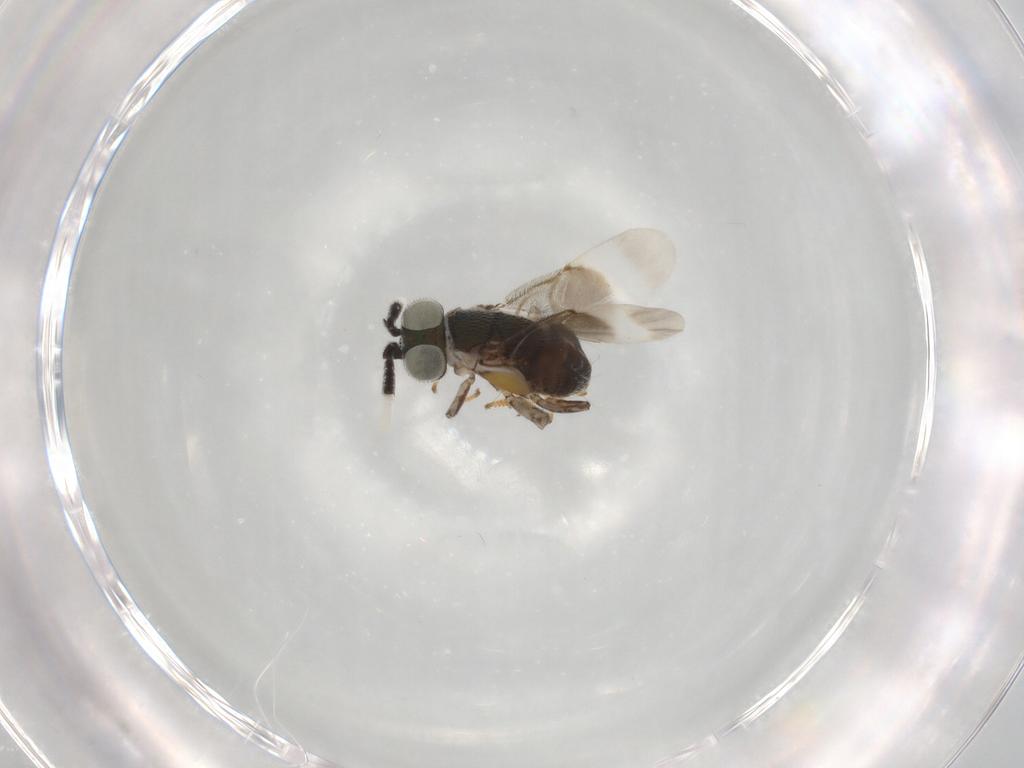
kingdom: Animalia
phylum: Arthropoda
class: Insecta
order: Hymenoptera
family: Encyrtidae
